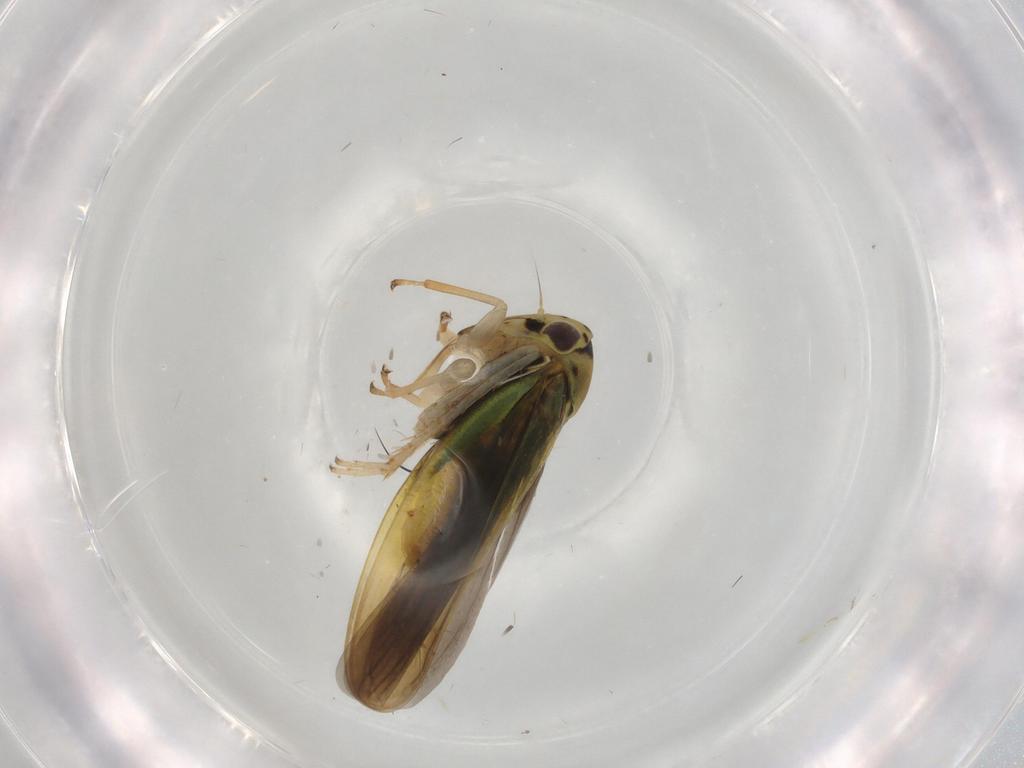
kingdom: Animalia
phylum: Arthropoda
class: Insecta
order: Hemiptera
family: Cicadellidae
